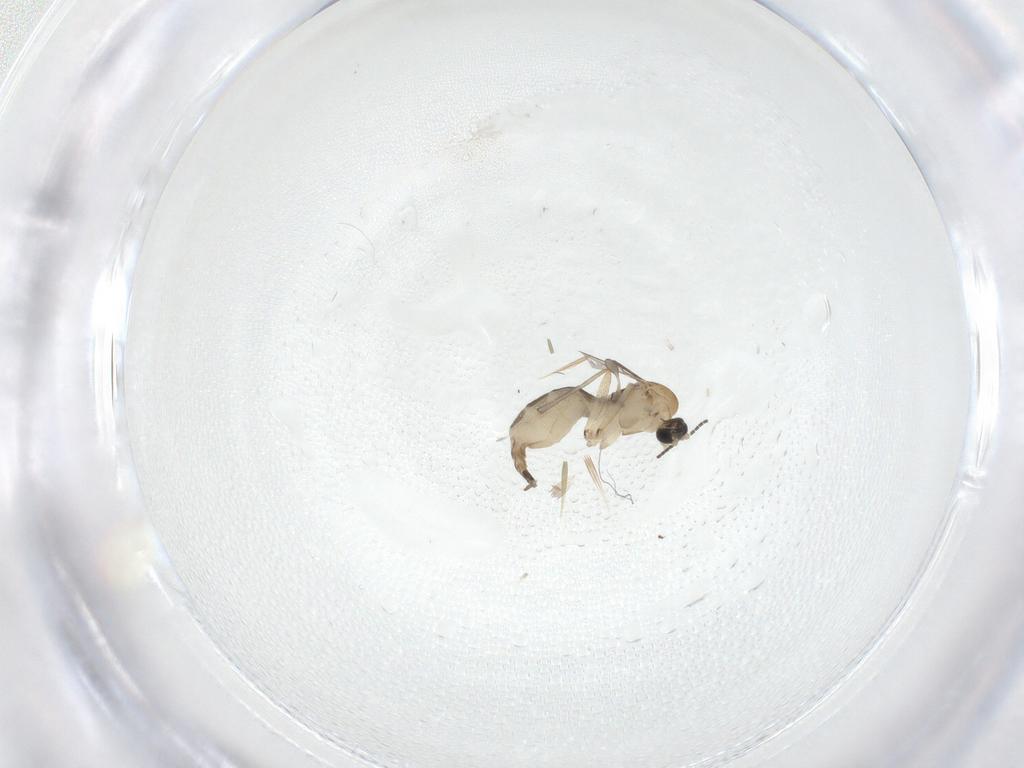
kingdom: Animalia
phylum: Arthropoda
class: Insecta
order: Diptera
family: Sciaridae
